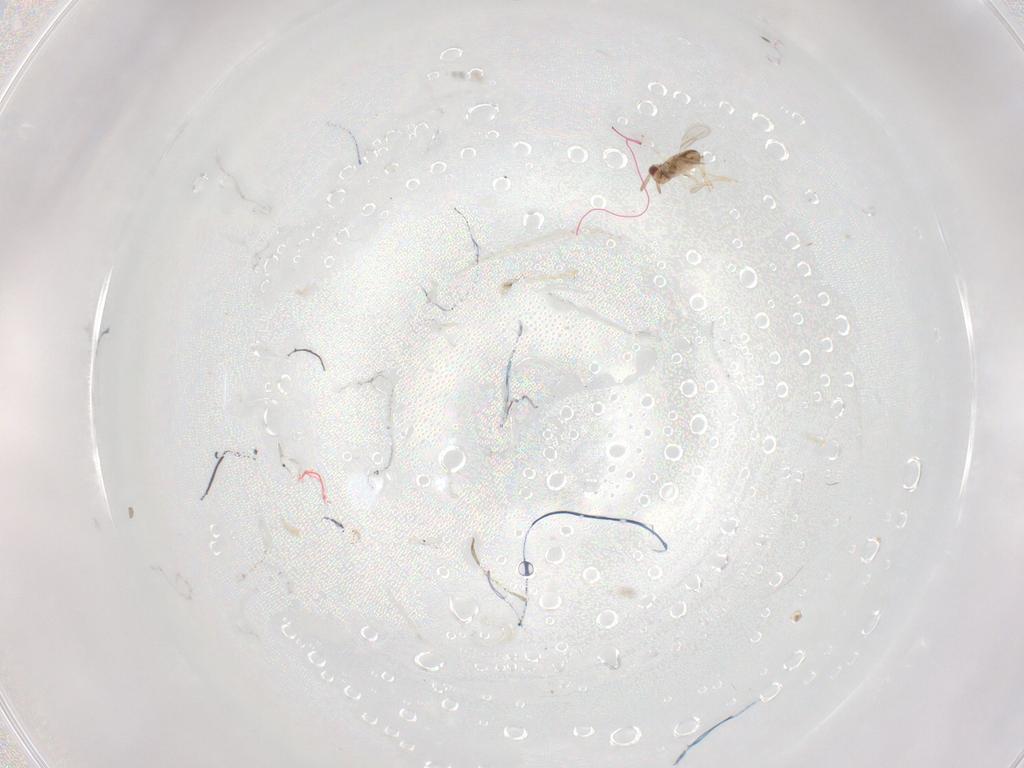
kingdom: Animalia
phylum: Arthropoda
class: Insecta
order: Hymenoptera
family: Aphelinidae
